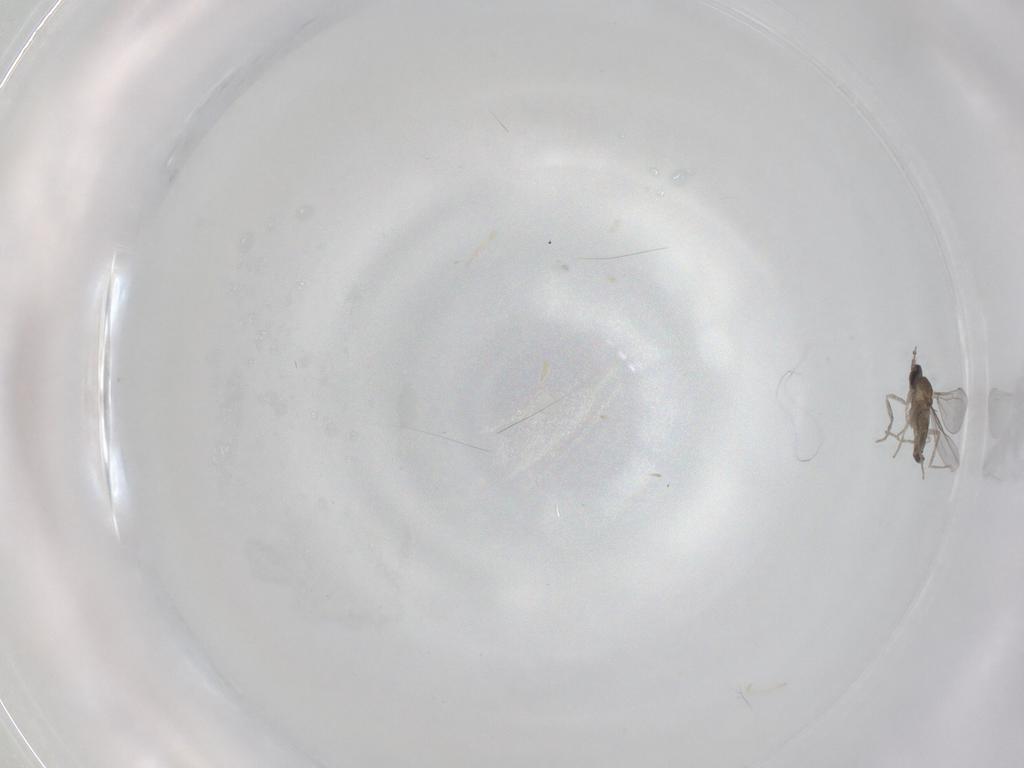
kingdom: Animalia
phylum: Arthropoda
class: Insecta
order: Diptera
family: Cecidomyiidae
